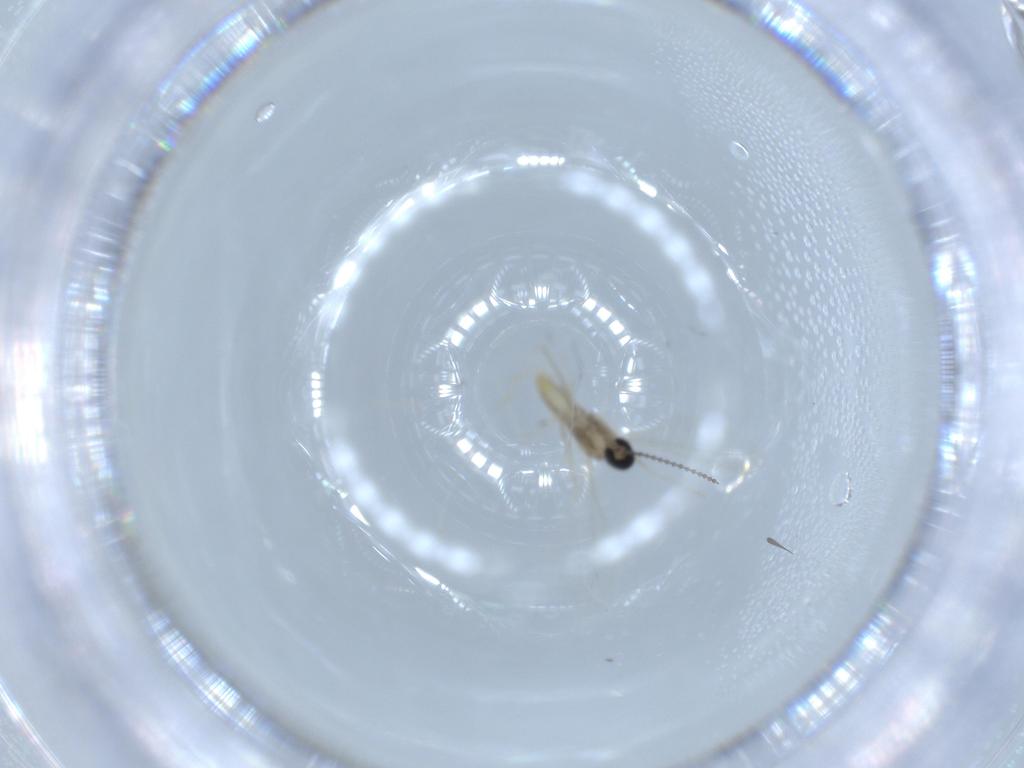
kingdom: Animalia
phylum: Arthropoda
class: Insecta
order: Diptera
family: Cecidomyiidae
